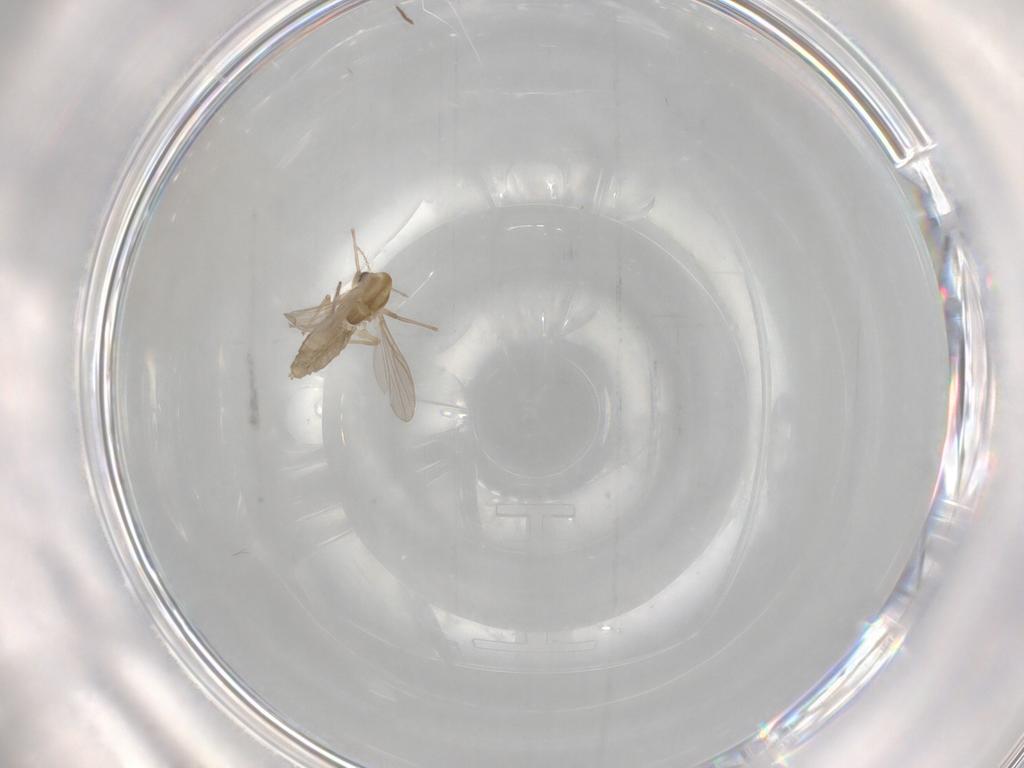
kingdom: Animalia
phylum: Arthropoda
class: Insecta
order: Diptera
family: Chironomidae
